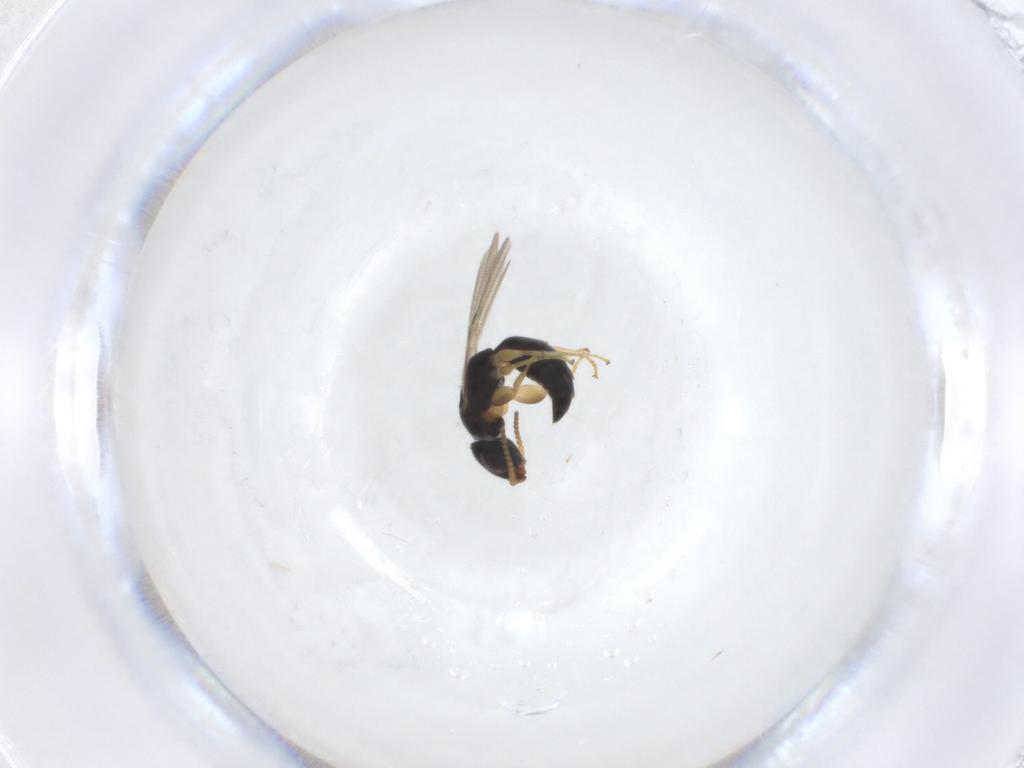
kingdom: Animalia
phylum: Arthropoda
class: Insecta
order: Hymenoptera
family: Bethylidae
